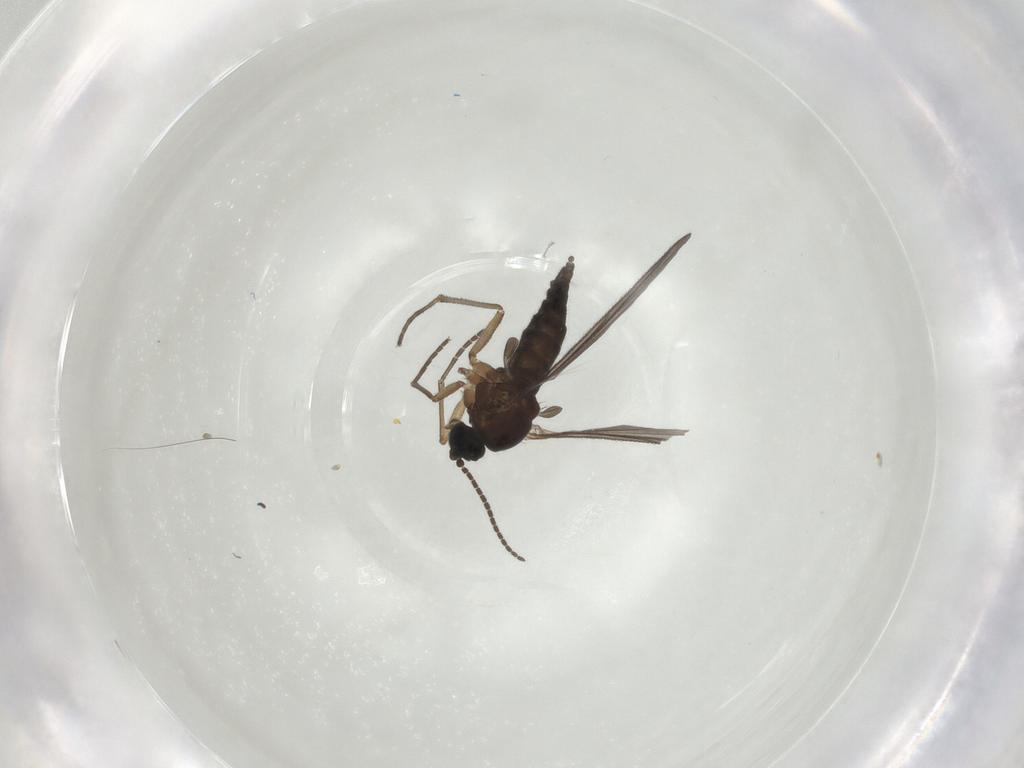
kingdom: Animalia
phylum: Arthropoda
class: Insecta
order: Diptera
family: Sciaridae
